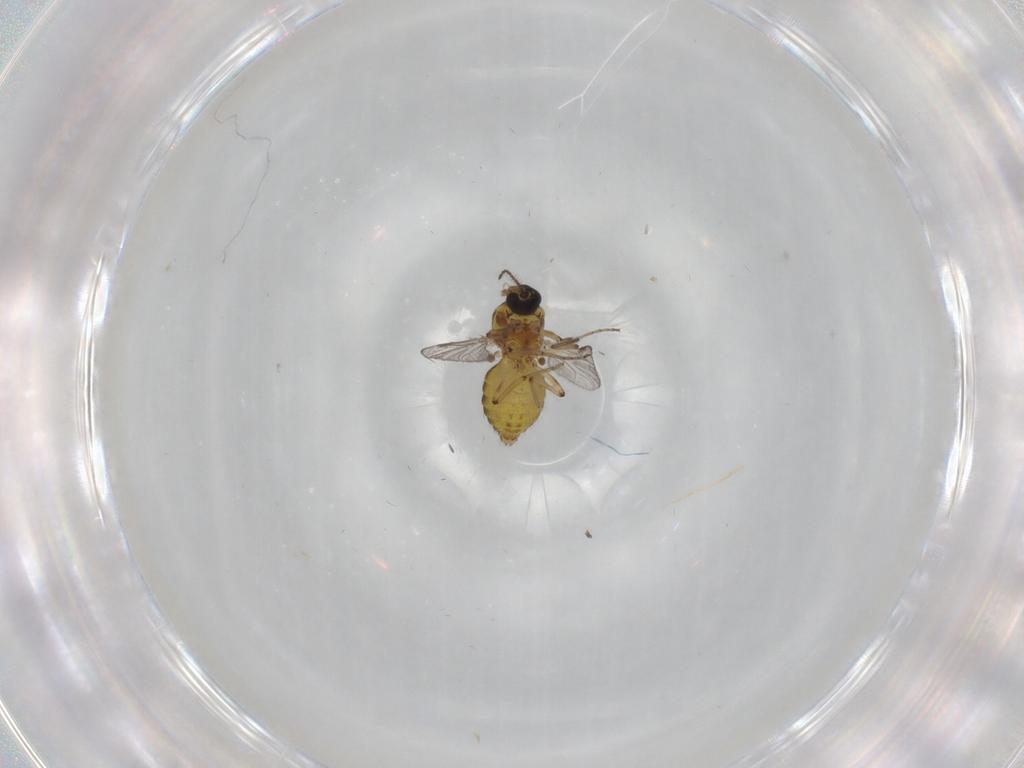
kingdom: Animalia
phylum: Arthropoda
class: Insecta
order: Diptera
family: Ceratopogonidae
